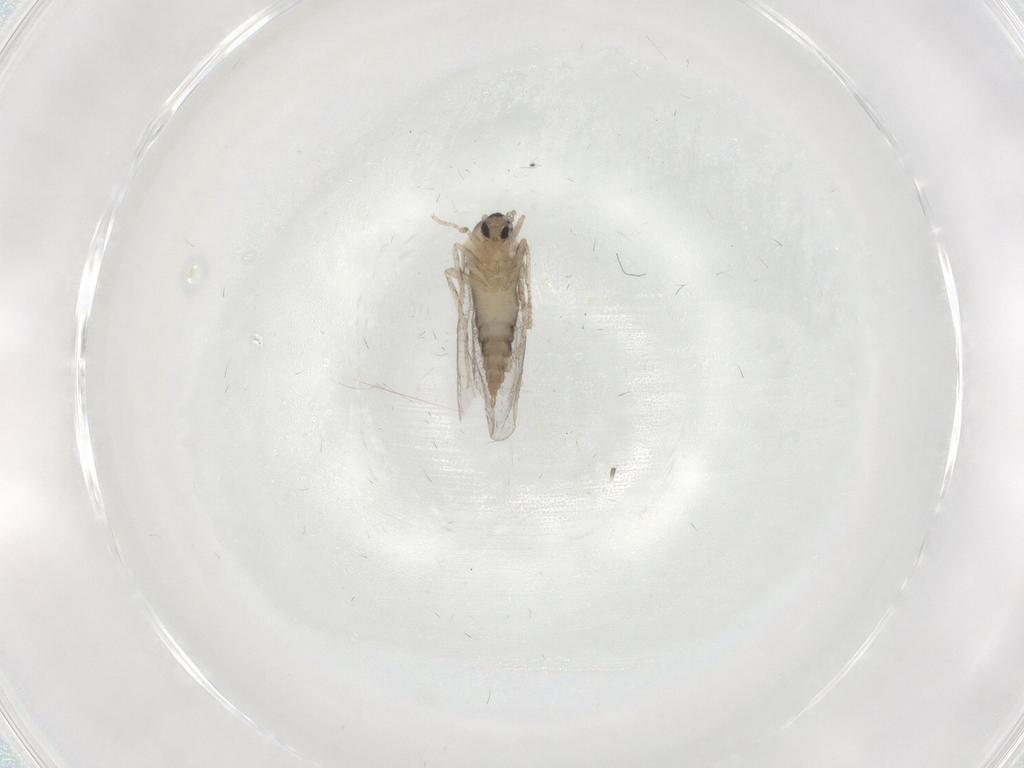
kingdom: Animalia
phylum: Arthropoda
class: Insecta
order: Diptera
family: Cecidomyiidae
